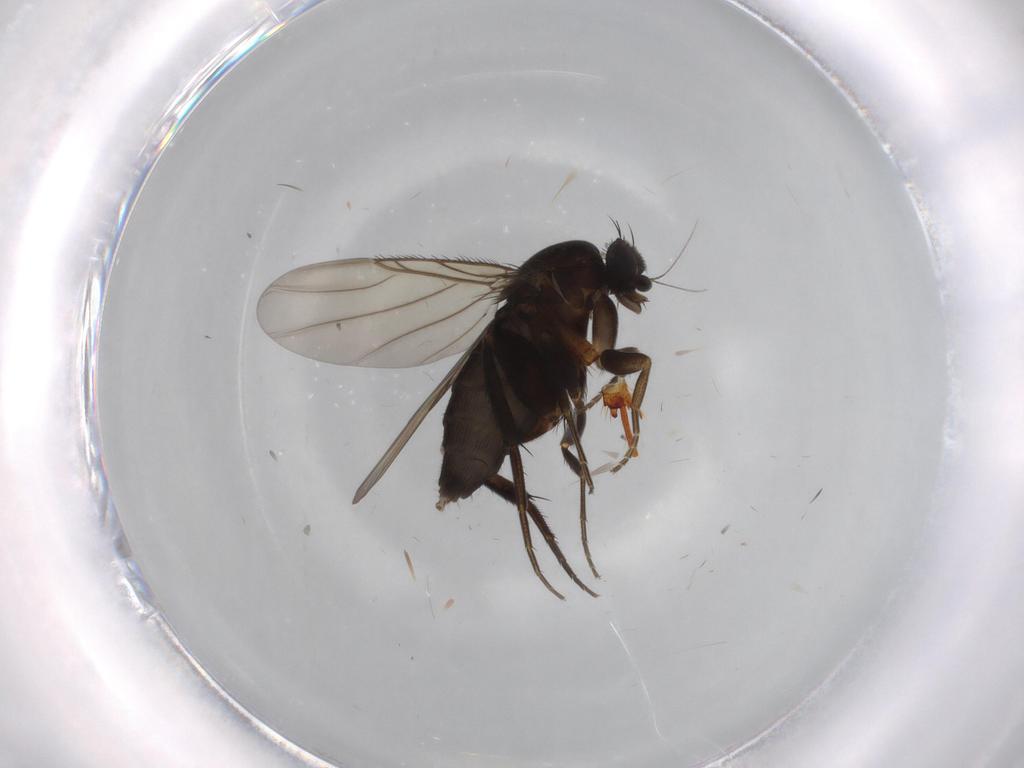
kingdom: Animalia
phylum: Arthropoda
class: Insecta
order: Diptera
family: Phoridae
